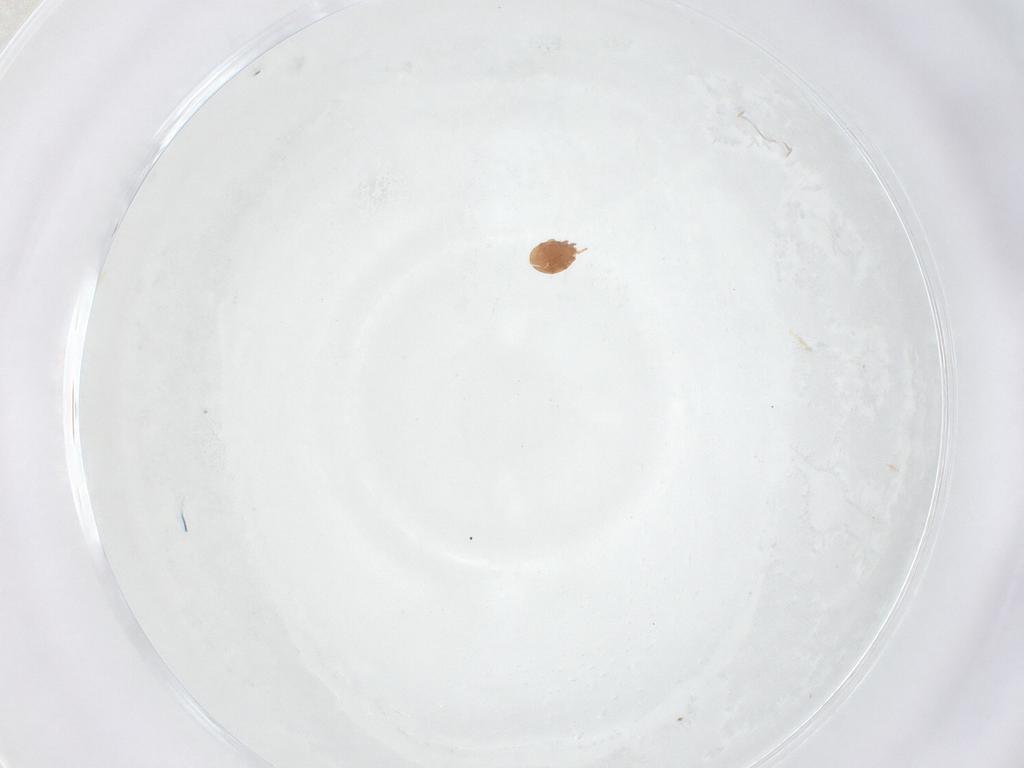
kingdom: Animalia
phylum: Arthropoda
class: Arachnida
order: Mesostigmata
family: Trematuridae
